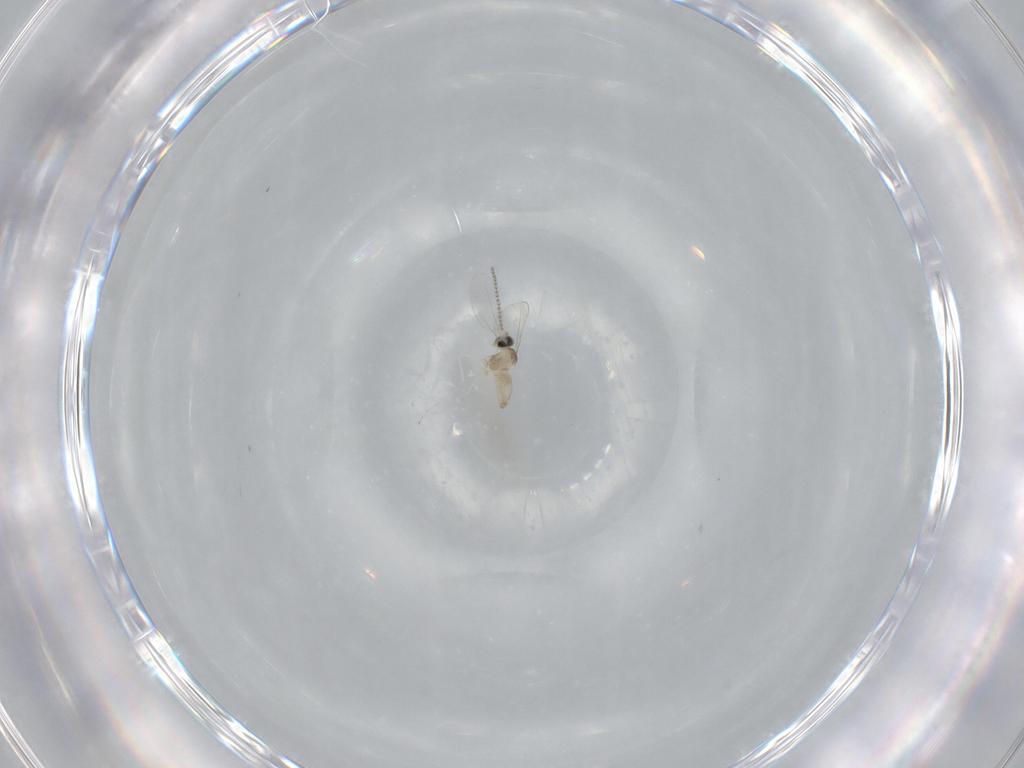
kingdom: Animalia
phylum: Arthropoda
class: Insecta
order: Diptera
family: Cecidomyiidae
